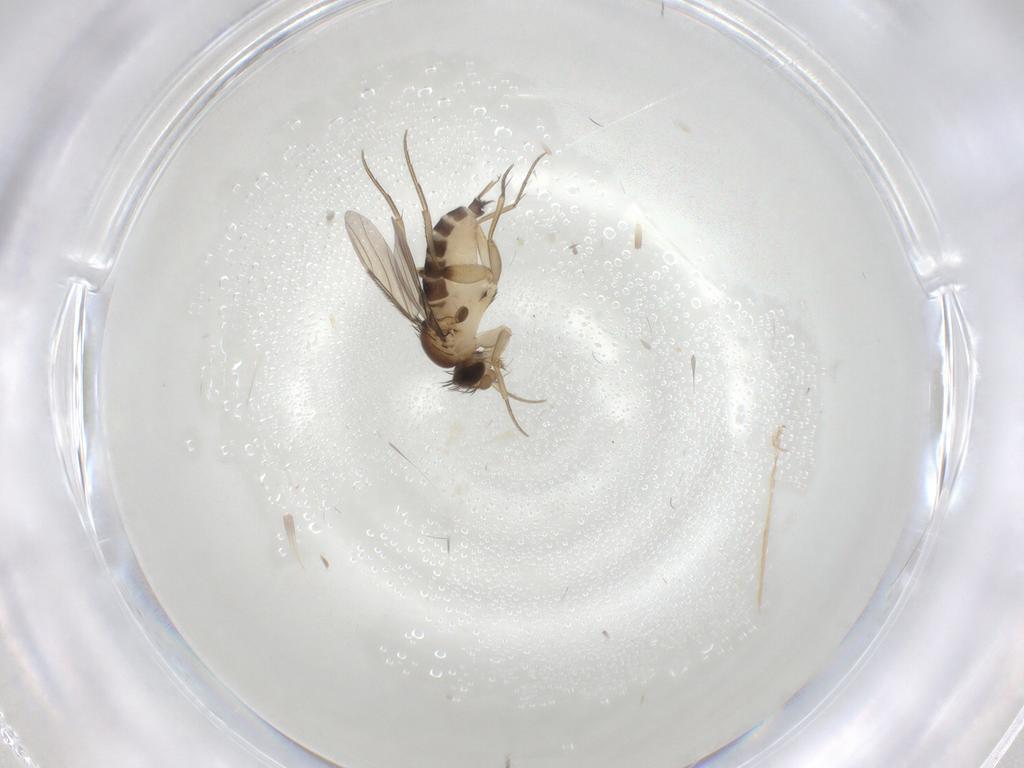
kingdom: Animalia
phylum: Arthropoda
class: Insecta
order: Diptera
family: Phoridae
